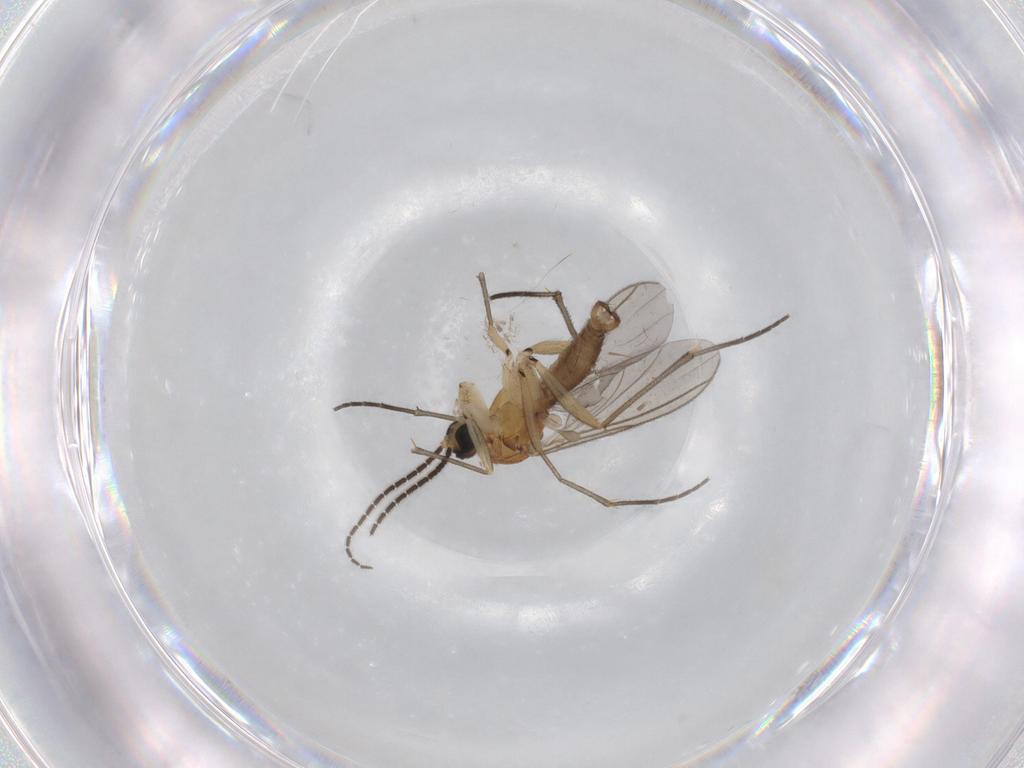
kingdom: Animalia
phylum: Arthropoda
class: Insecta
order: Diptera
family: Sciaridae
